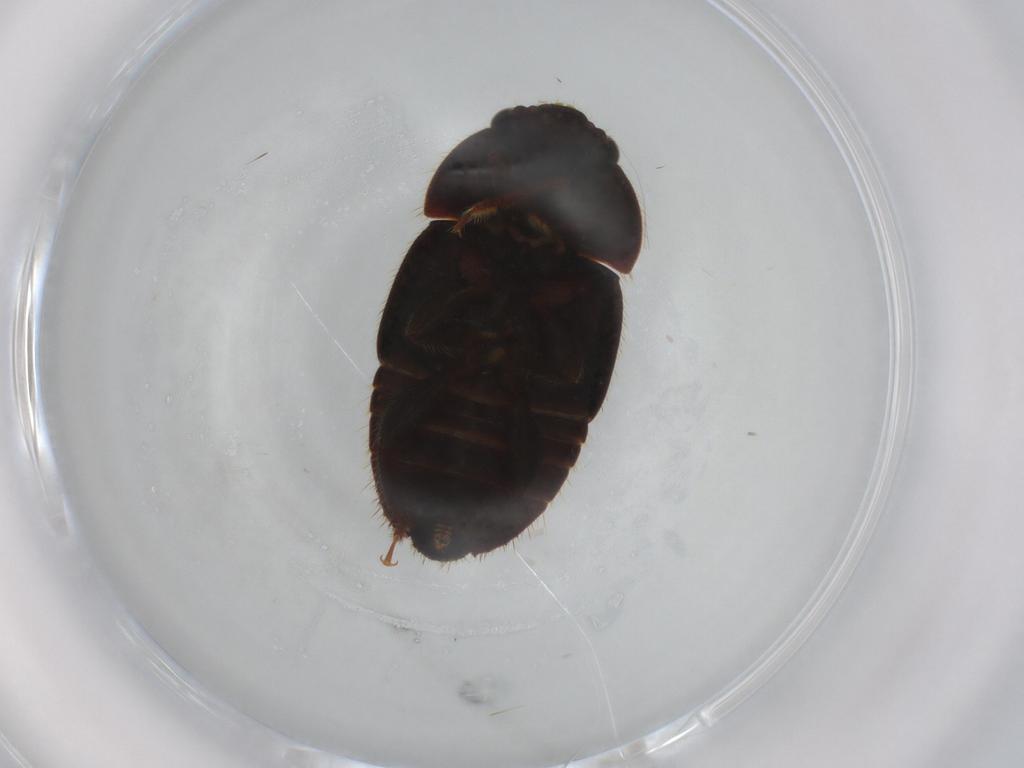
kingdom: Animalia
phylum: Arthropoda
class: Insecta
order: Coleoptera
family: Nitidulidae
